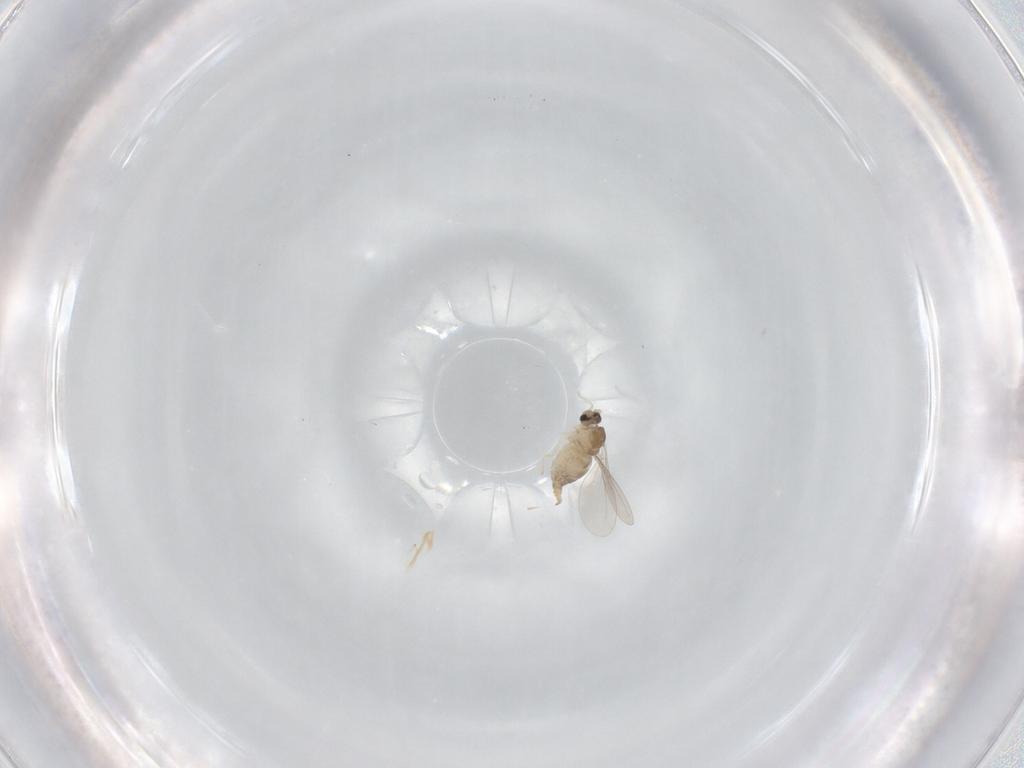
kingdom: Animalia
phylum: Arthropoda
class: Insecta
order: Diptera
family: Cecidomyiidae
